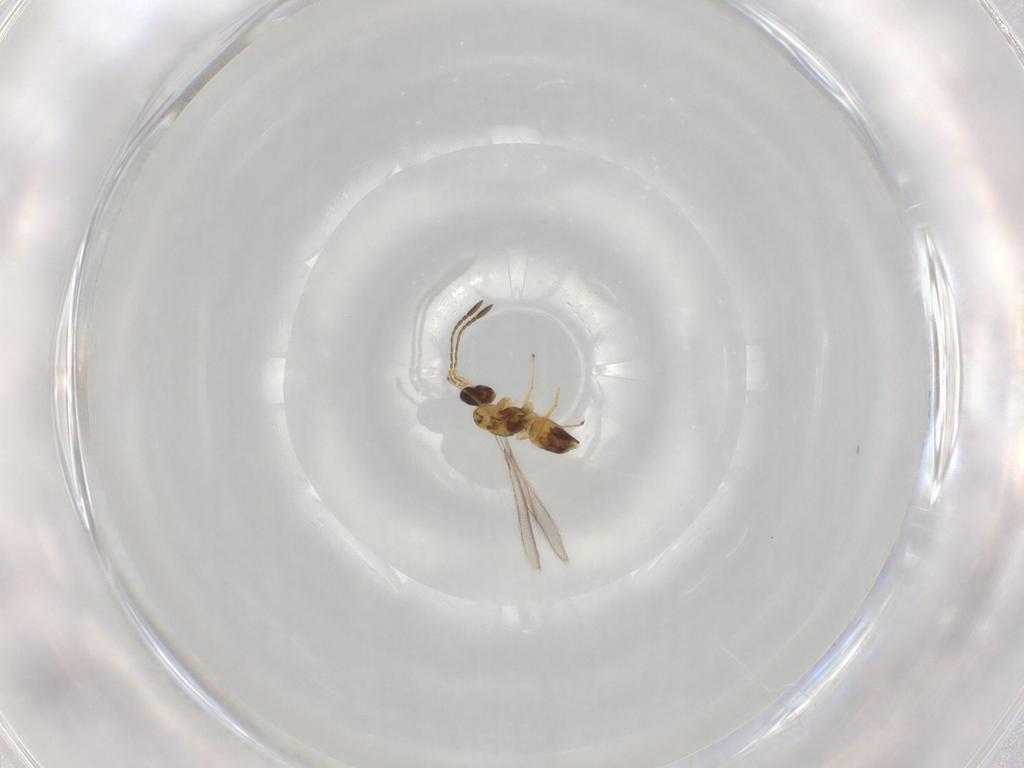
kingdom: Animalia
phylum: Arthropoda
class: Insecta
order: Hymenoptera
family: Mymaridae
